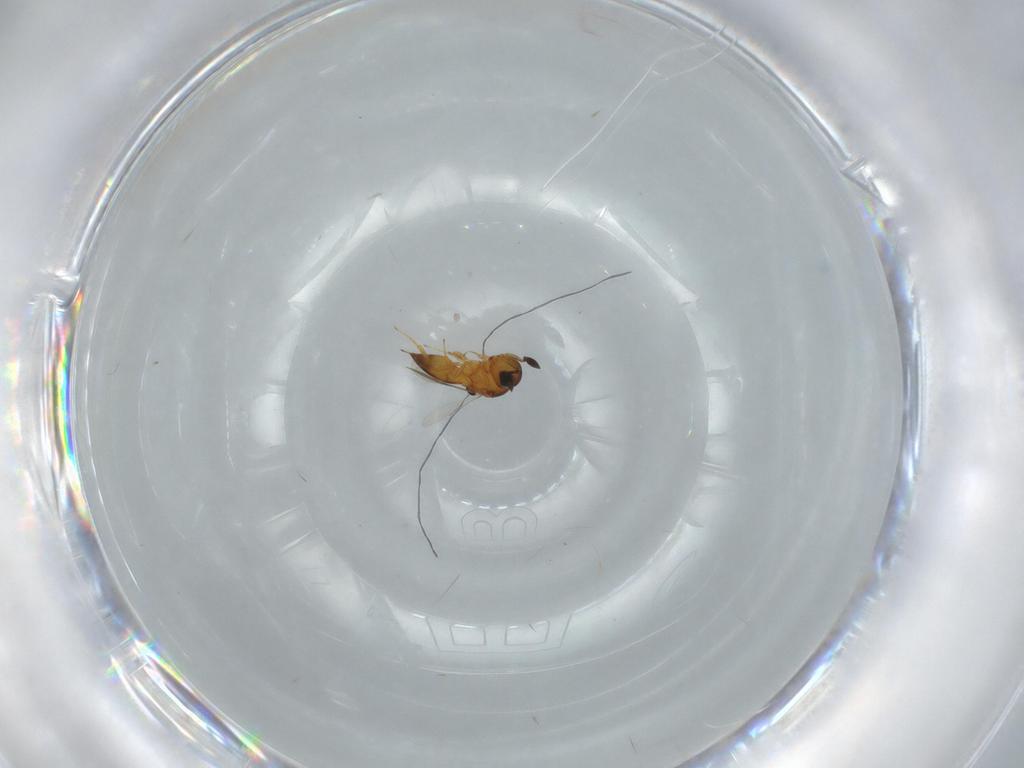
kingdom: Animalia
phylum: Arthropoda
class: Insecta
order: Hymenoptera
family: Scelionidae
